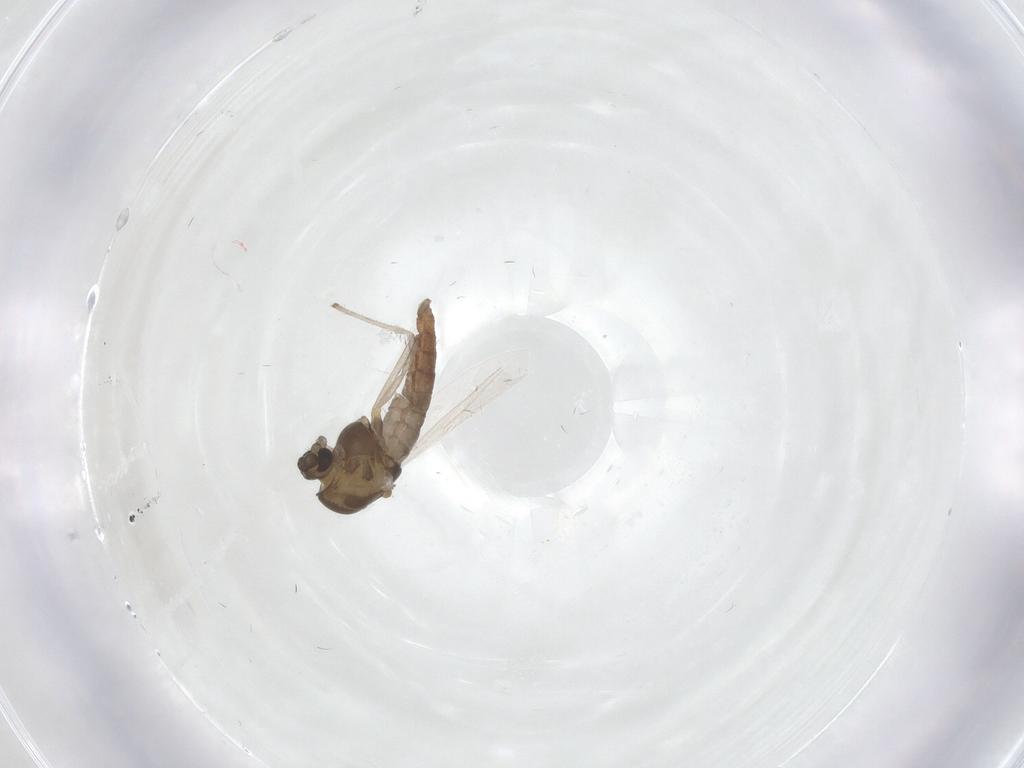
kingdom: Animalia
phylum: Arthropoda
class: Insecta
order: Diptera
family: Chironomidae
